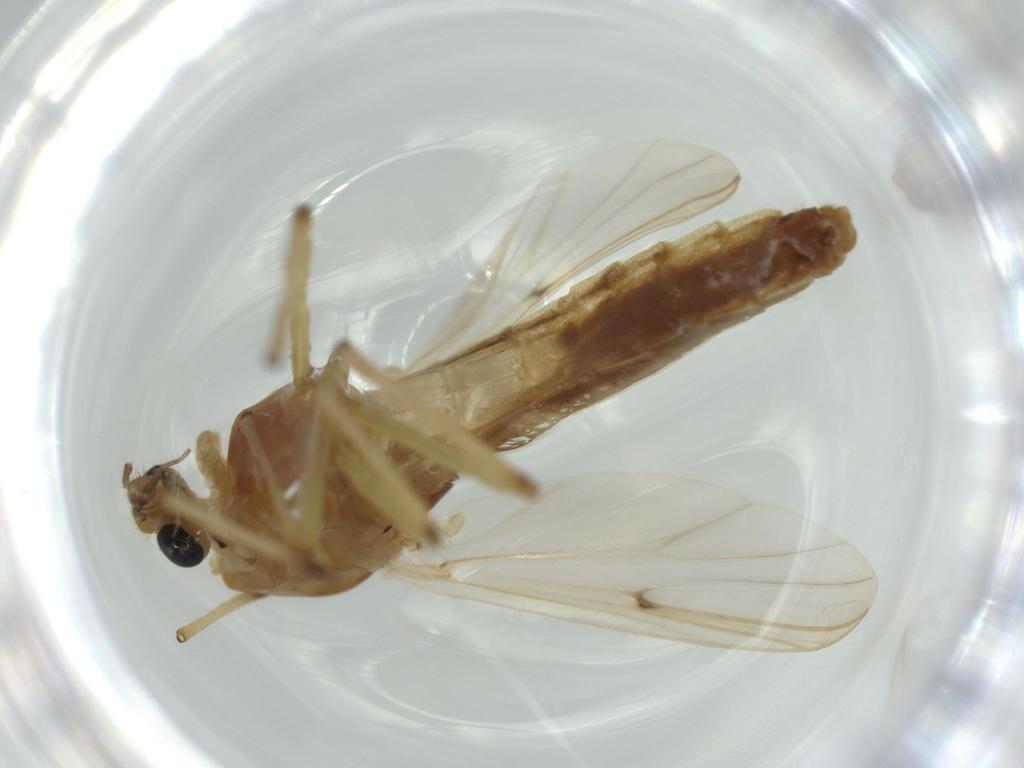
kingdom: Animalia
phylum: Arthropoda
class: Insecta
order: Diptera
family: Chironomidae
